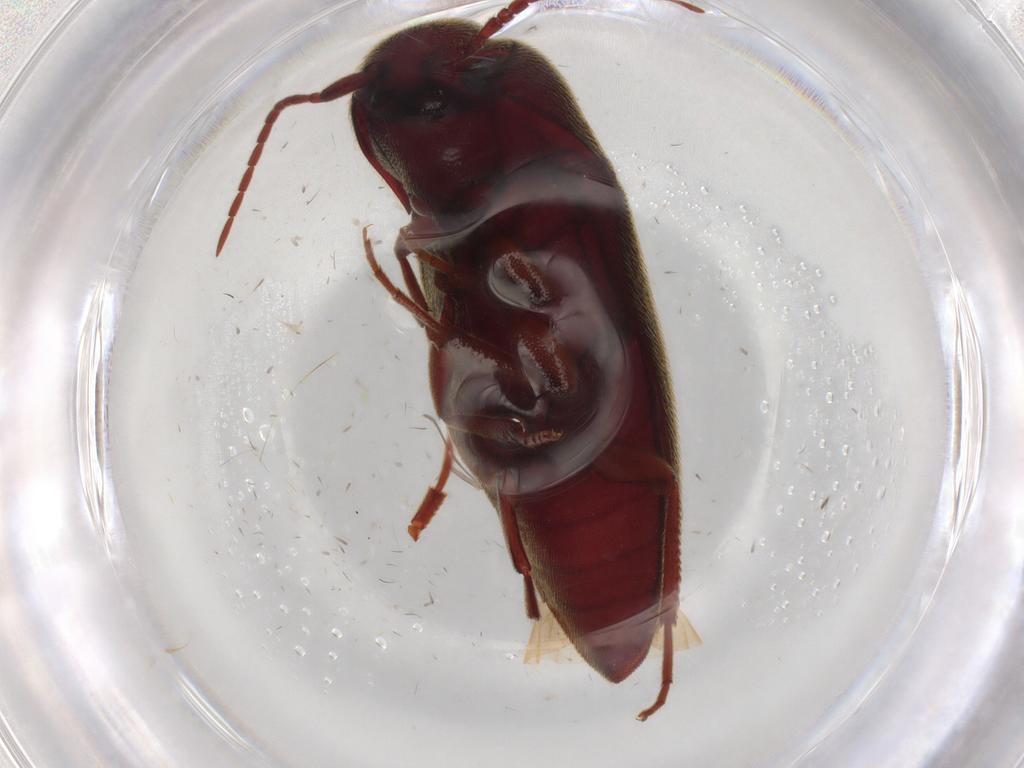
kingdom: Animalia
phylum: Arthropoda
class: Insecta
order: Coleoptera
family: Eucnemidae
